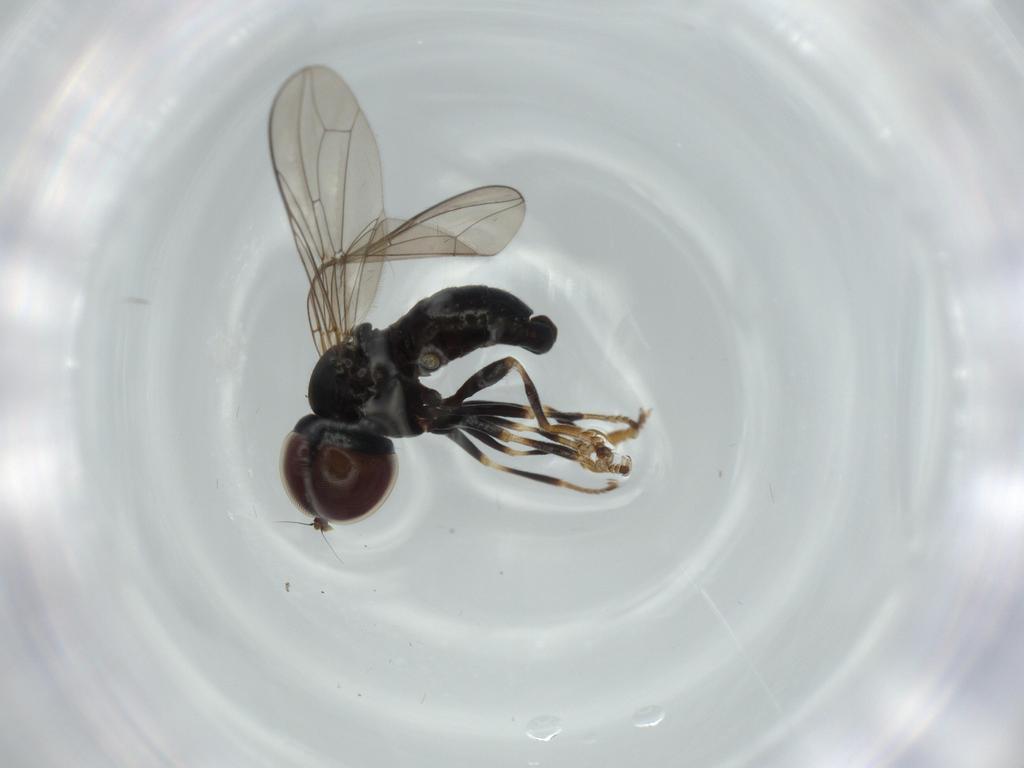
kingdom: Animalia
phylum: Arthropoda
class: Insecta
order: Diptera
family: Pipunculidae
